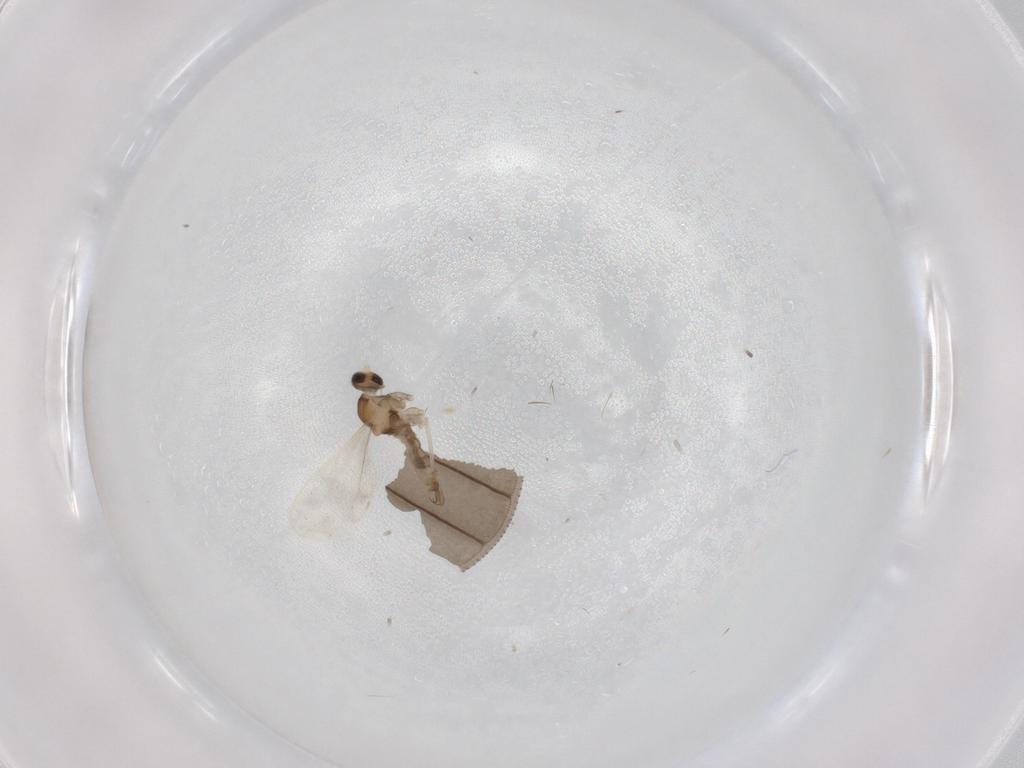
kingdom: Animalia
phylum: Arthropoda
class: Insecta
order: Diptera
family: Cecidomyiidae
